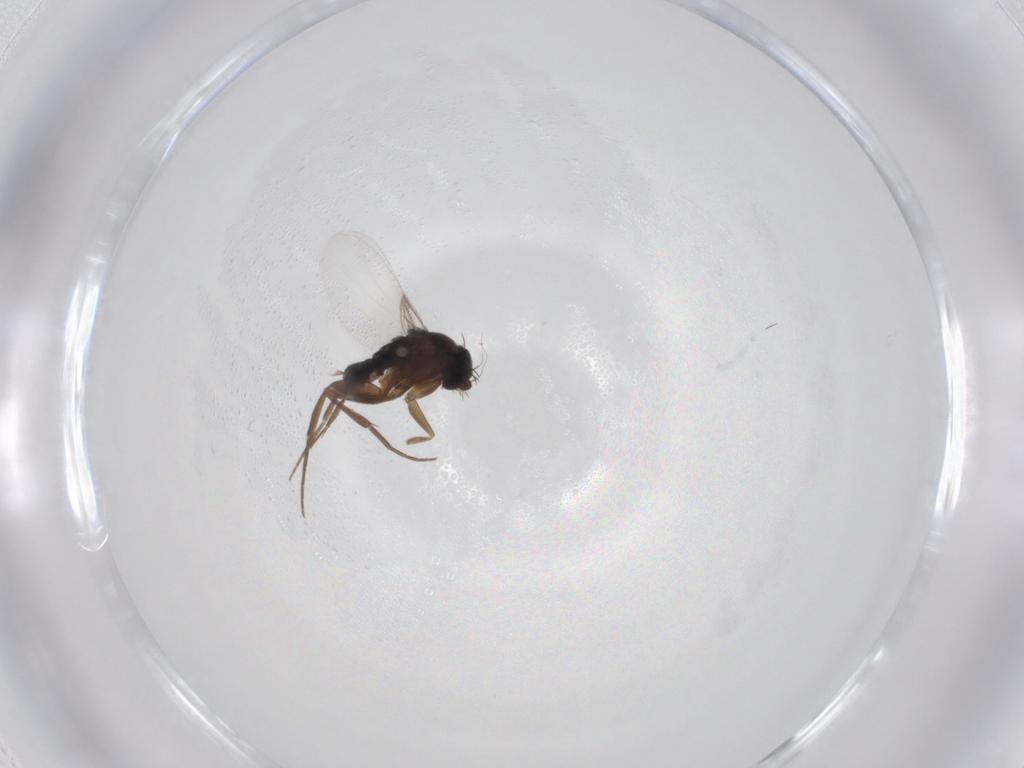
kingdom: Animalia
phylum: Arthropoda
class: Insecta
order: Diptera
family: Phoridae
